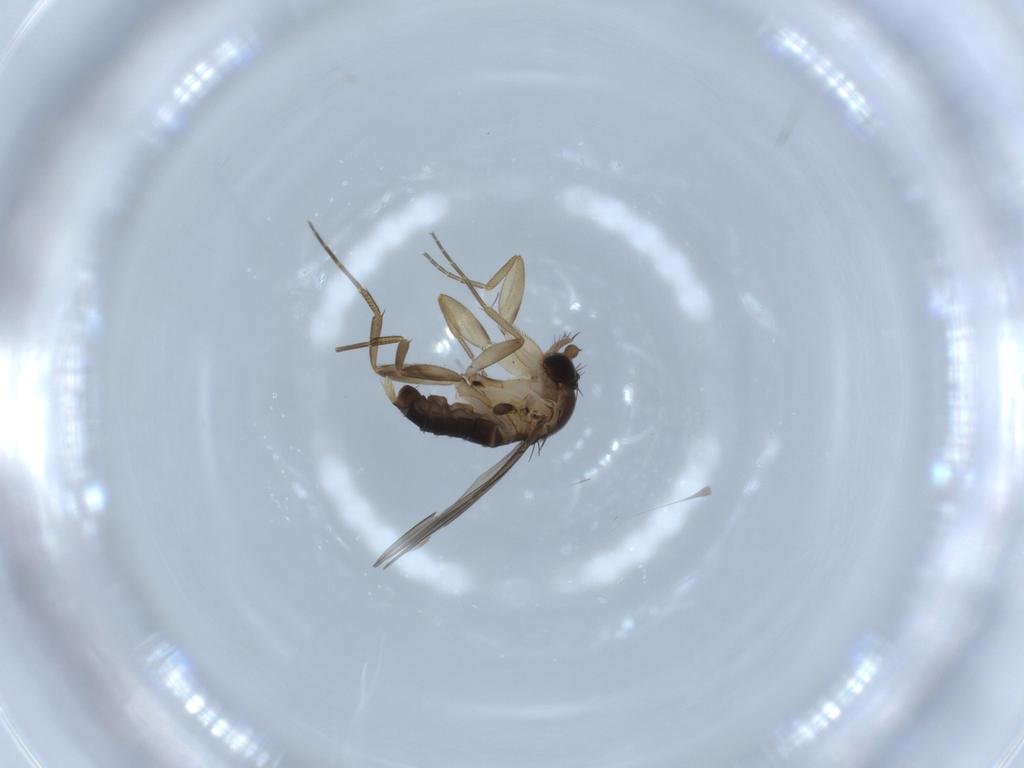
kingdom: Animalia
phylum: Arthropoda
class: Insecta
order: Diptera
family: Phoridae
